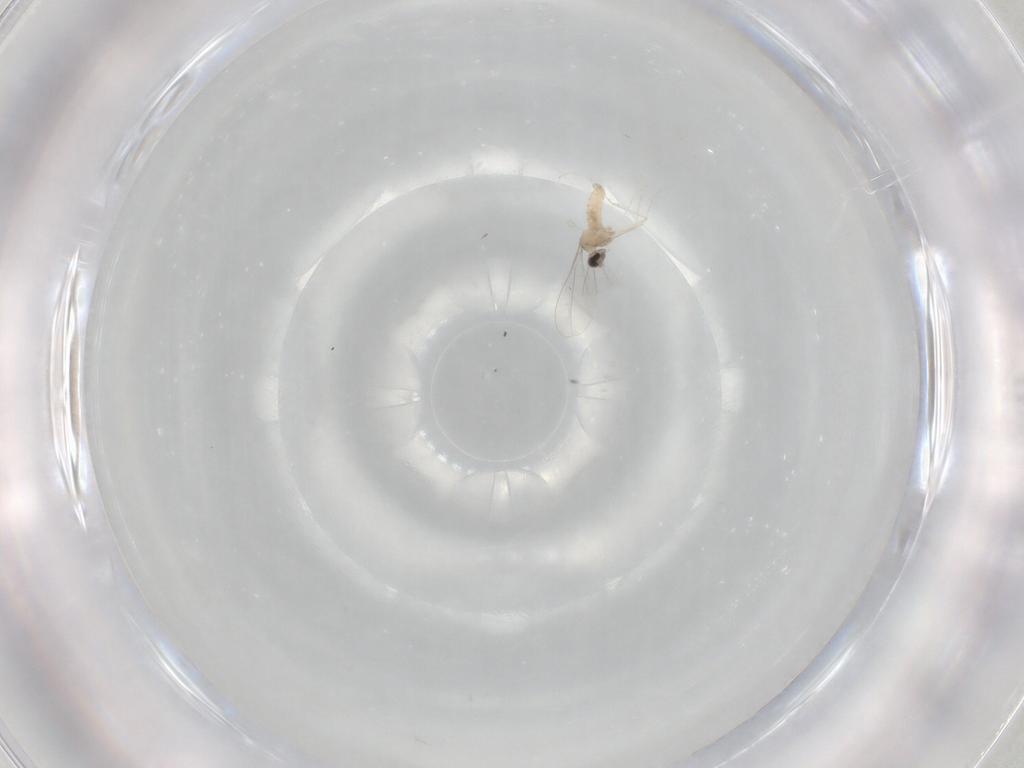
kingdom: Animalia
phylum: Arthropoda
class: Insecta
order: Diptera
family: Cecidomyiidae
